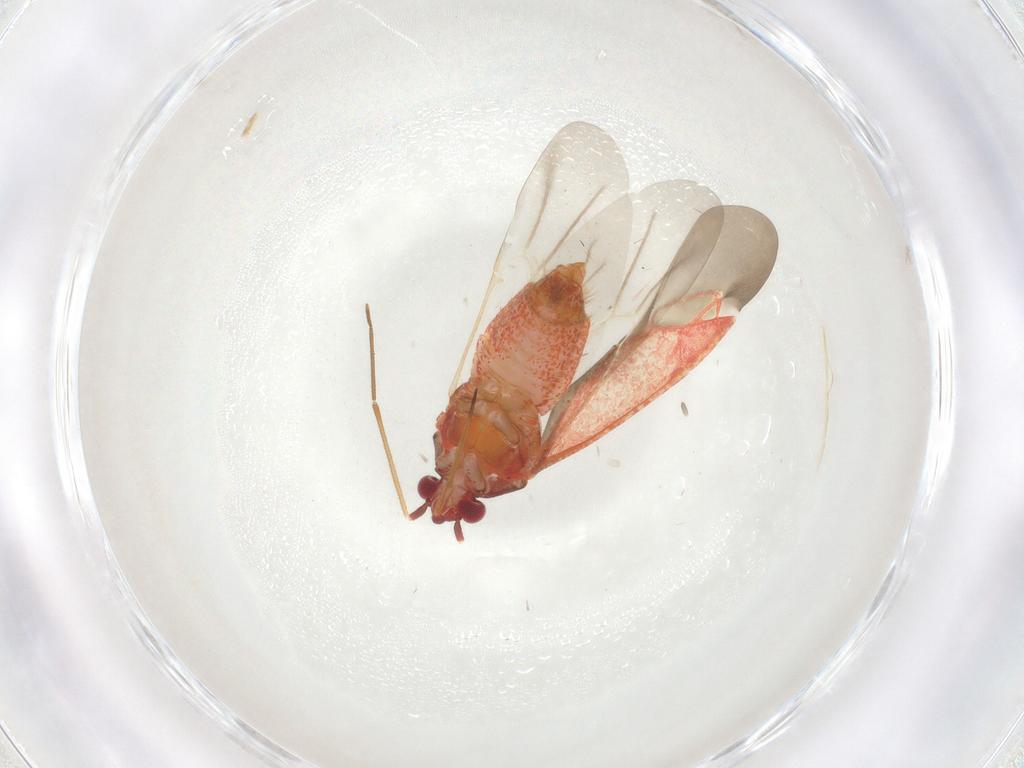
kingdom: Animalia
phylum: Arthropoda
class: Insecta
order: Hemiptera
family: Miridae
